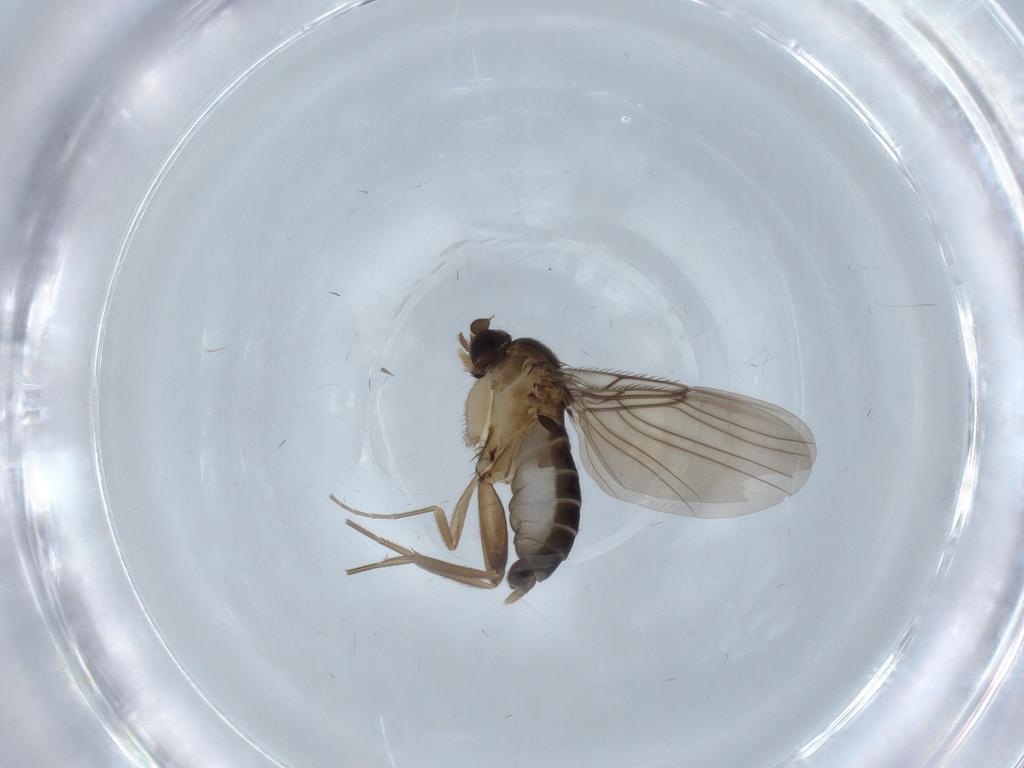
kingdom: Animalia
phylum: Arthropoda
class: Insecta
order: Diptera
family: Phoridae
